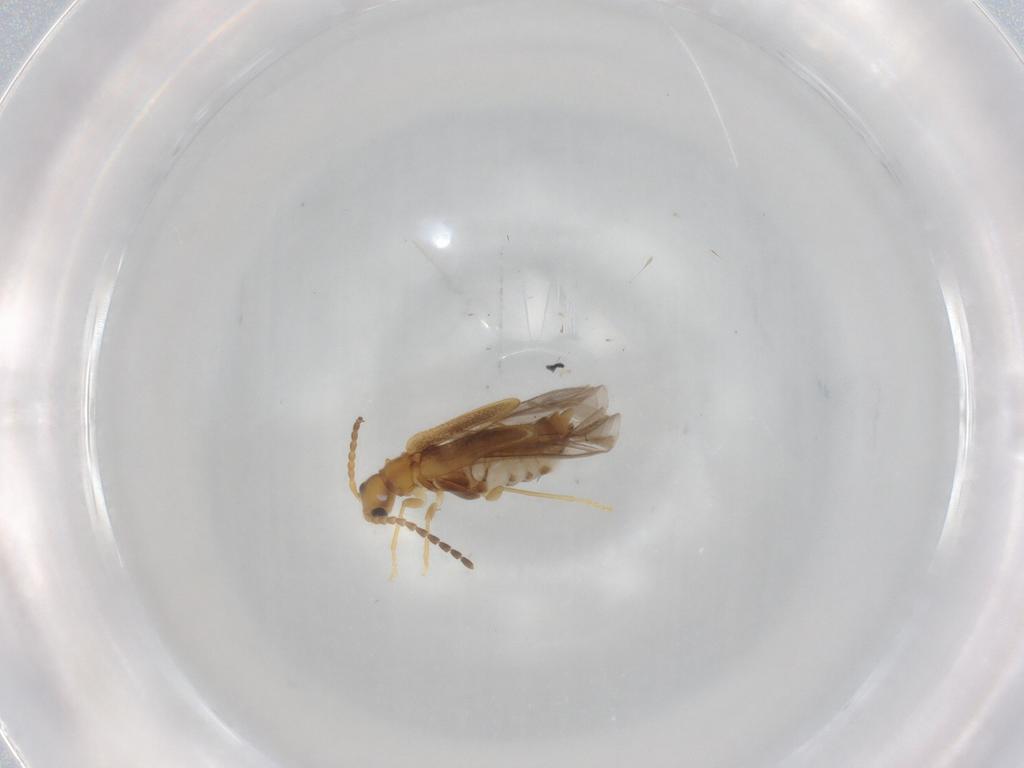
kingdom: Animalia
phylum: Arthropoda
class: Insecta
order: Coleoptera
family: Cantharidae
